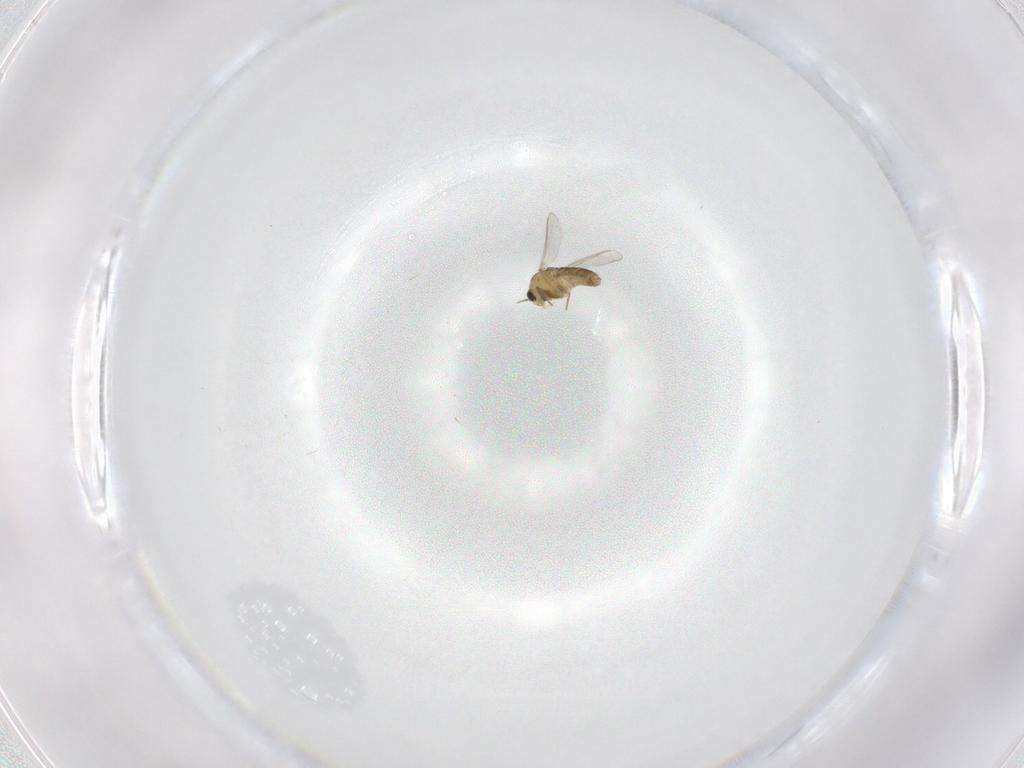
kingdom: Animalia
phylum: Arthropoda
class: Insecta
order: Diptera
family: Chironomidae
